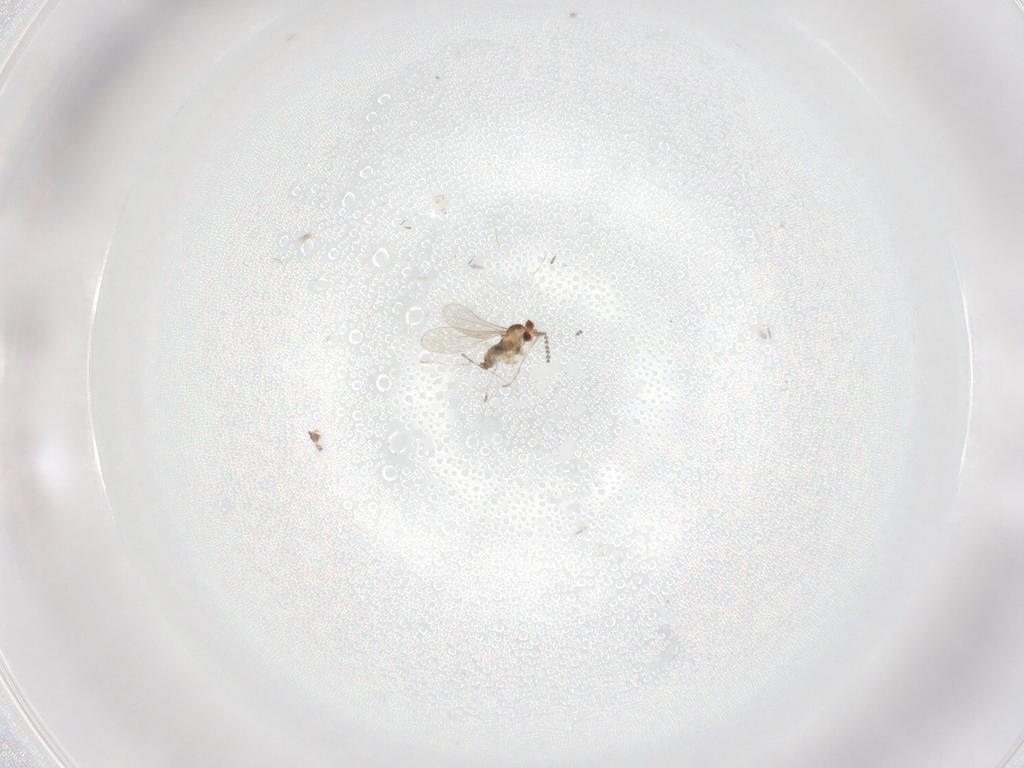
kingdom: Animalia
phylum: Arthropoda
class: Insecta
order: Diptera
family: Cecidomyiidae
